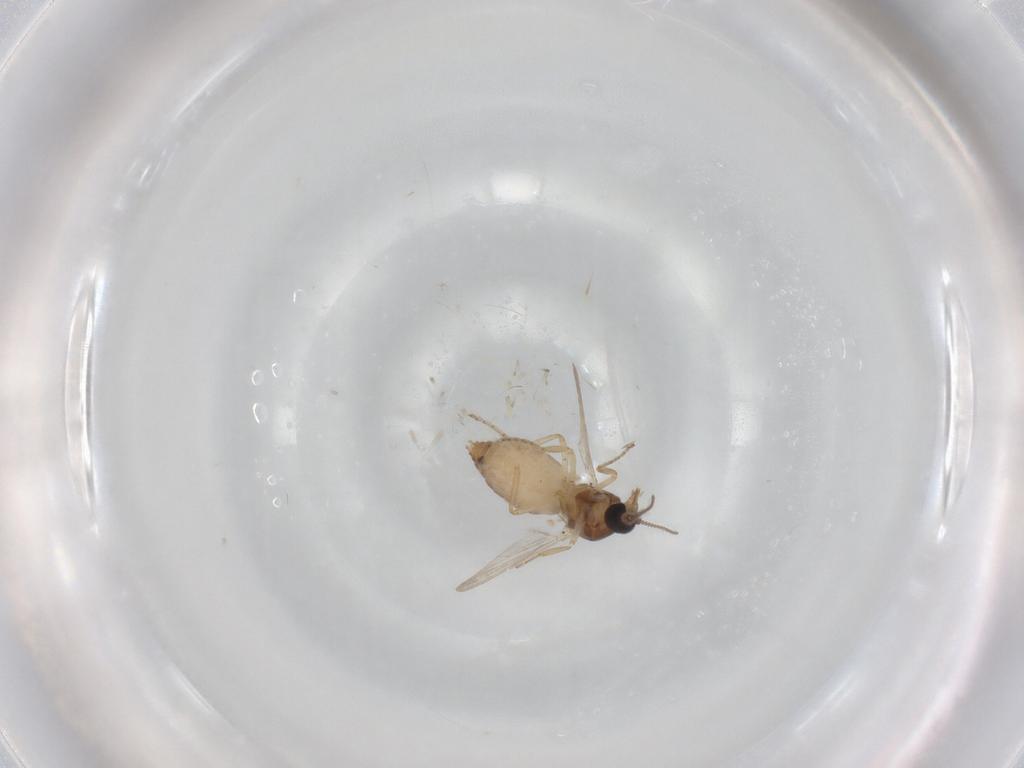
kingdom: Animalia
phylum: Arthropoda
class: Insecta
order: Diptera
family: Ceratopogonidae
